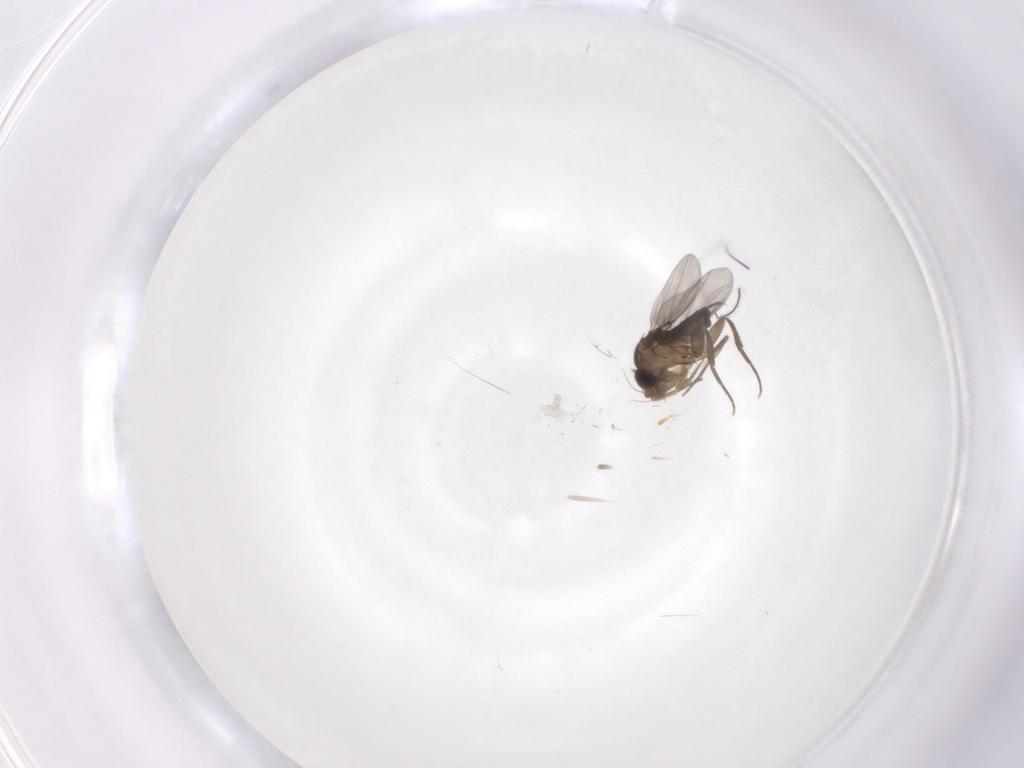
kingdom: Animalia
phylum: Arthropoda
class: Insecta
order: Diptera
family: Phoridae
